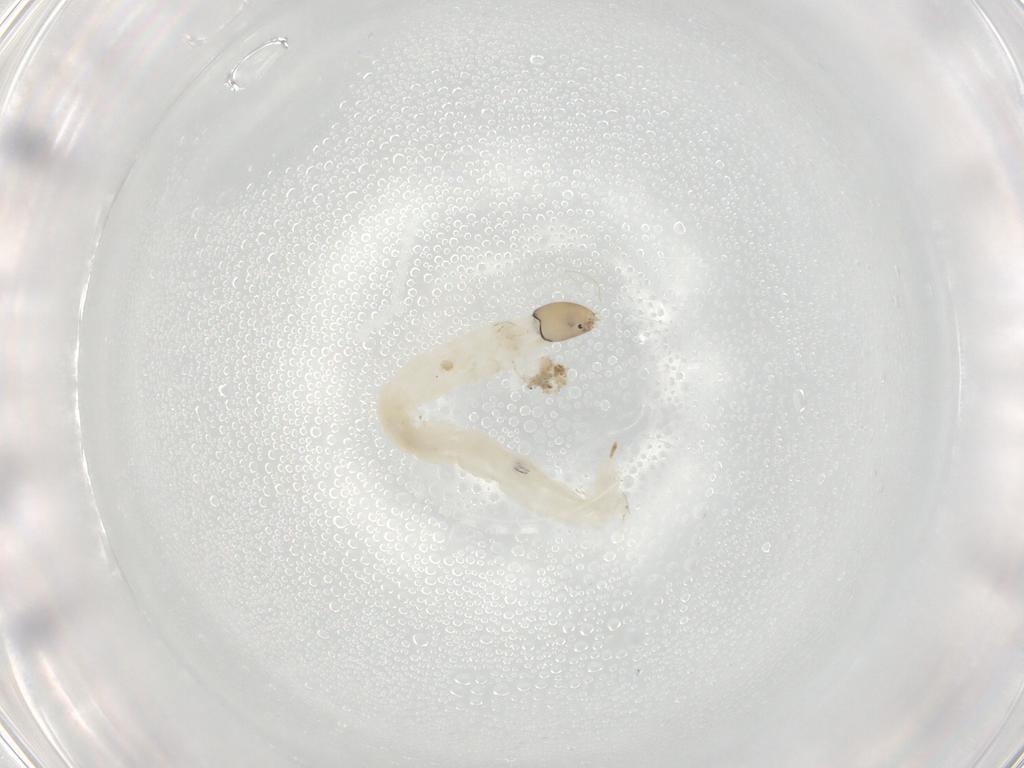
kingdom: Animalia
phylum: Arthropoda
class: Insecta
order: Diptera
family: Chironomidae
